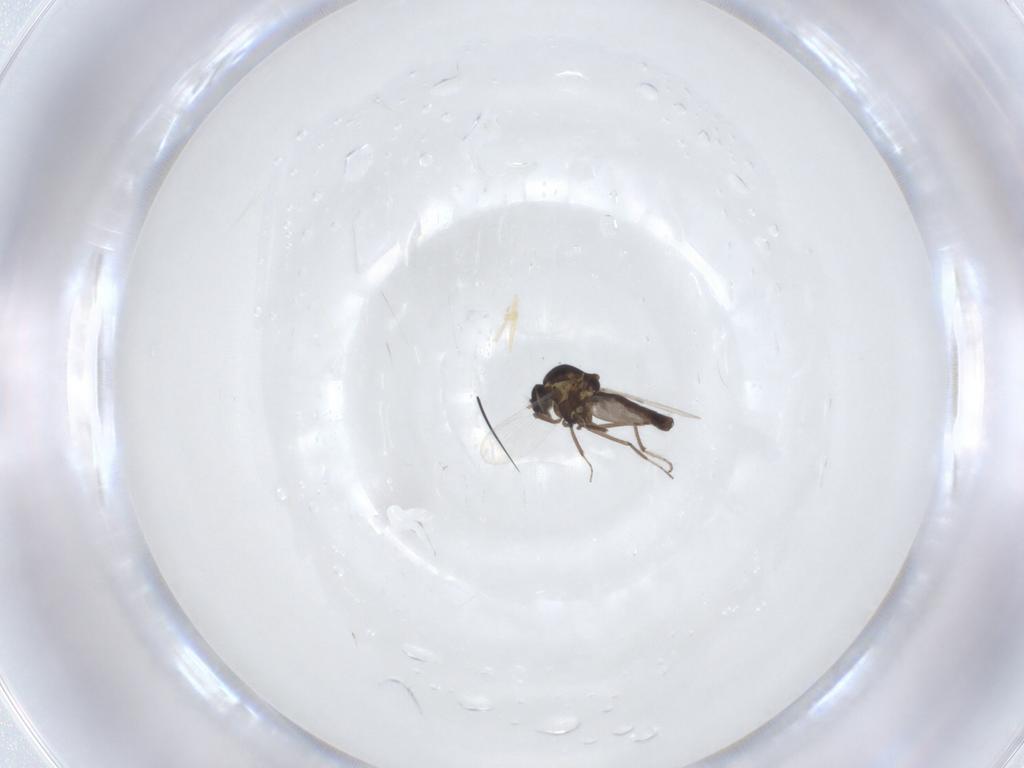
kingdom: Animalia
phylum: Arthropoda
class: Insecta
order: Diptera
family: Ceratopogonidae
